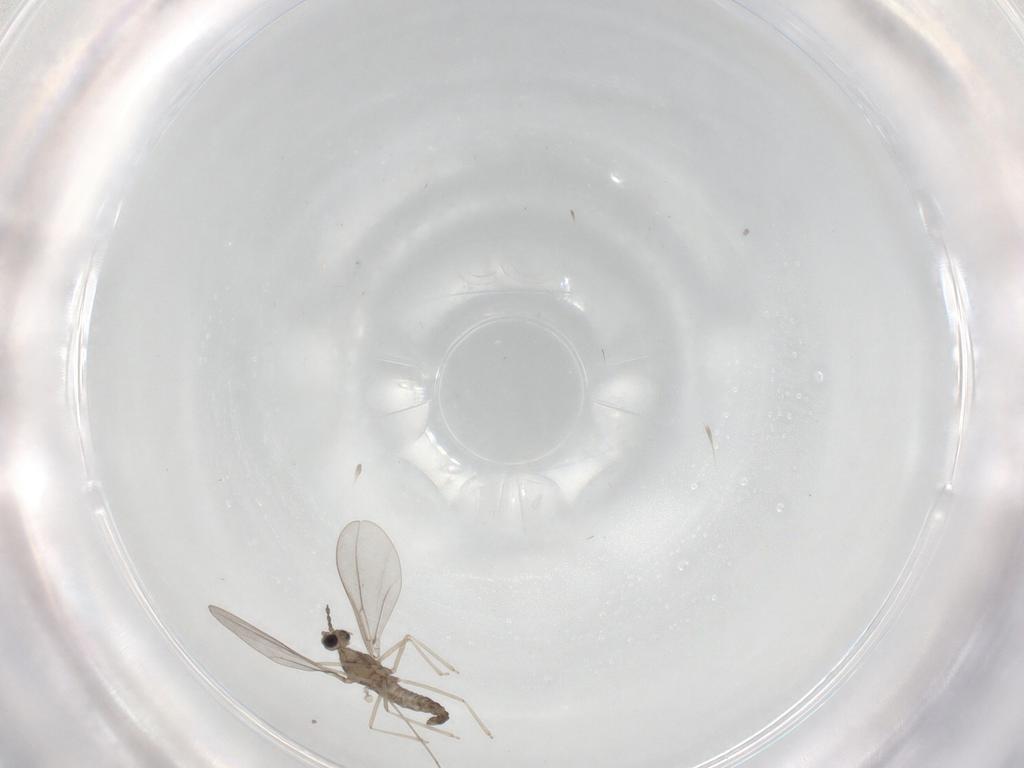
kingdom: Animalia
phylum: Arthropoda
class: Insecta
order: Diptera
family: Cecidomyiidae
